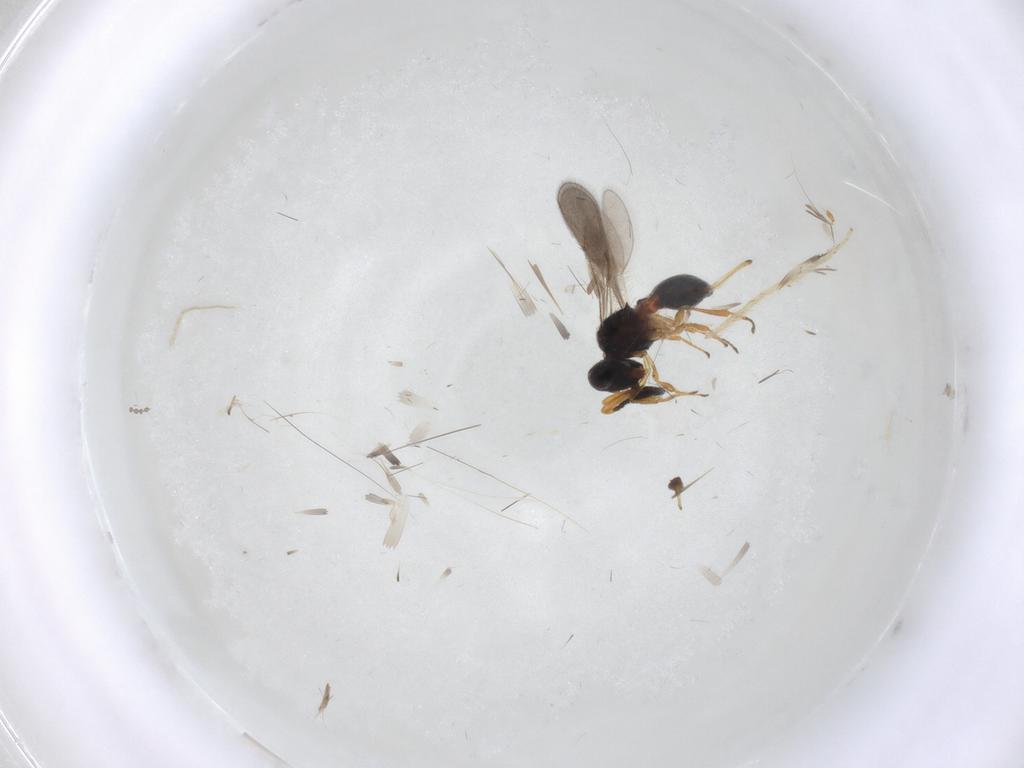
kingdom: Animalia
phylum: Arthropoda
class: Insecta
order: Hymenoptera
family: Scelionidae
